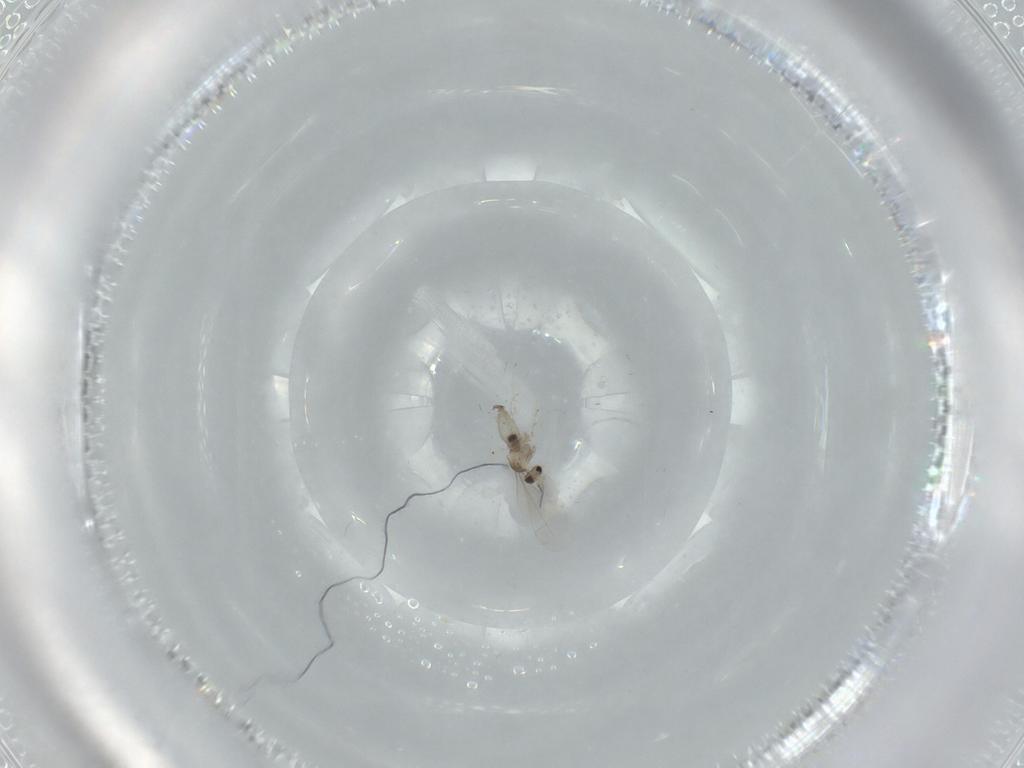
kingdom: Animalia
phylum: Arthropoda
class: Insecta
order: Diptera
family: Cecidomyiidae
